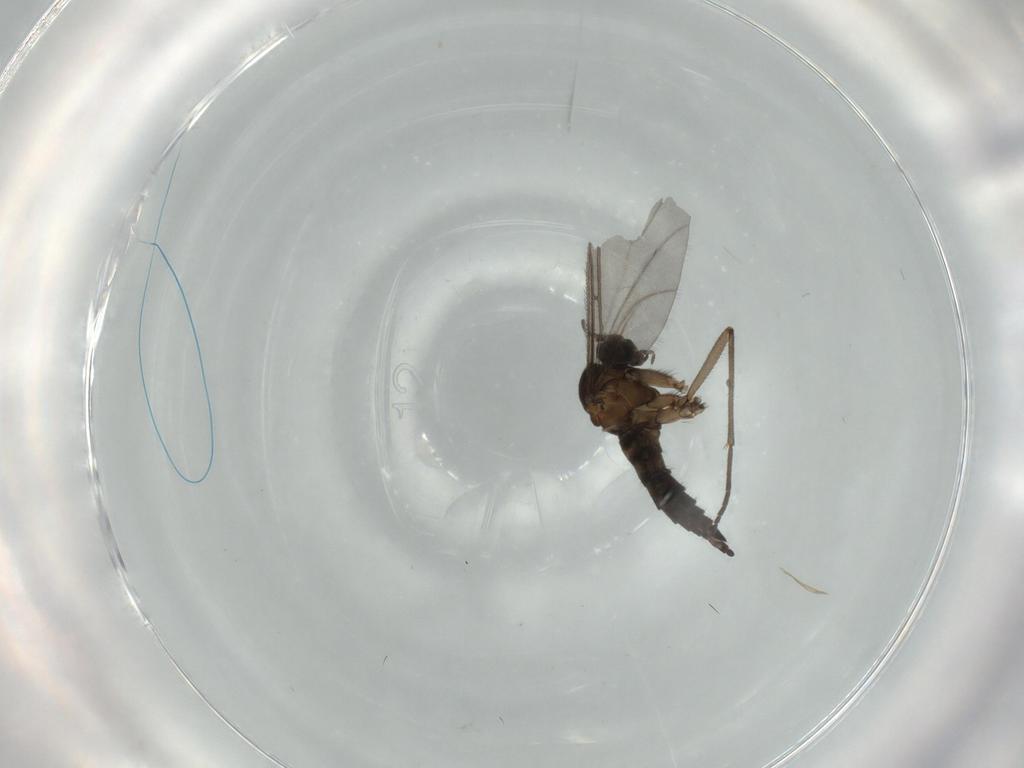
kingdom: Animalia
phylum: Arthropoda
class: Insecta
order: Diptera
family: Sciaridae
